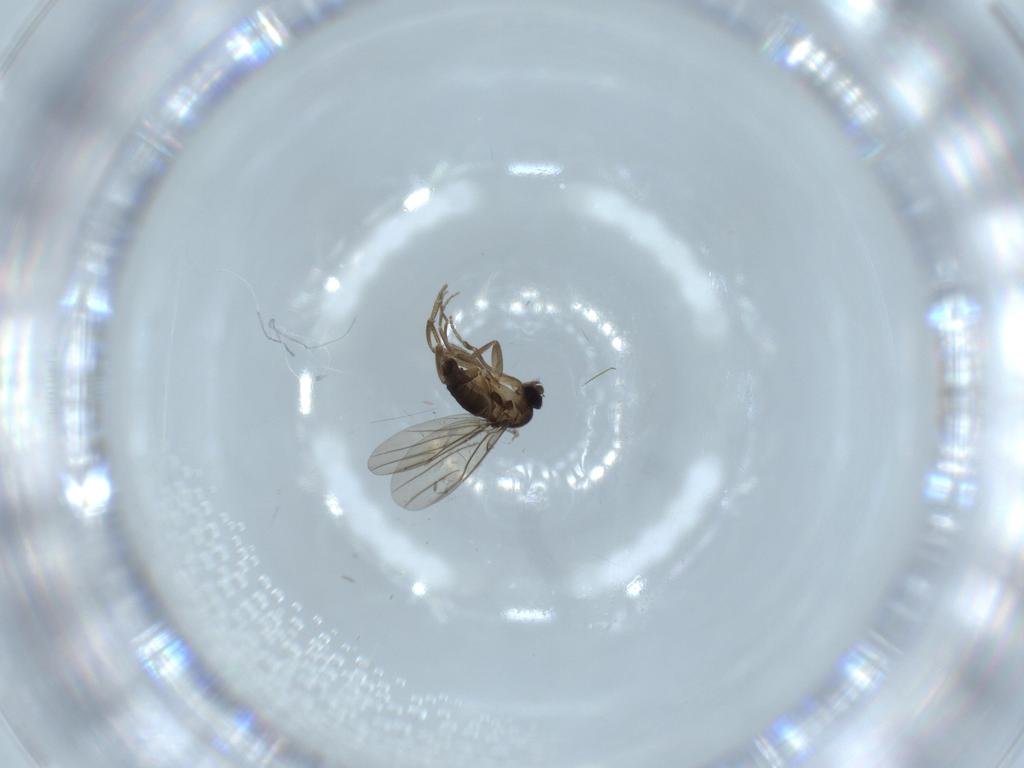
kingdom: Animalia
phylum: Arthropoda
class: Insecta
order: Diptera
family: Phoridae
